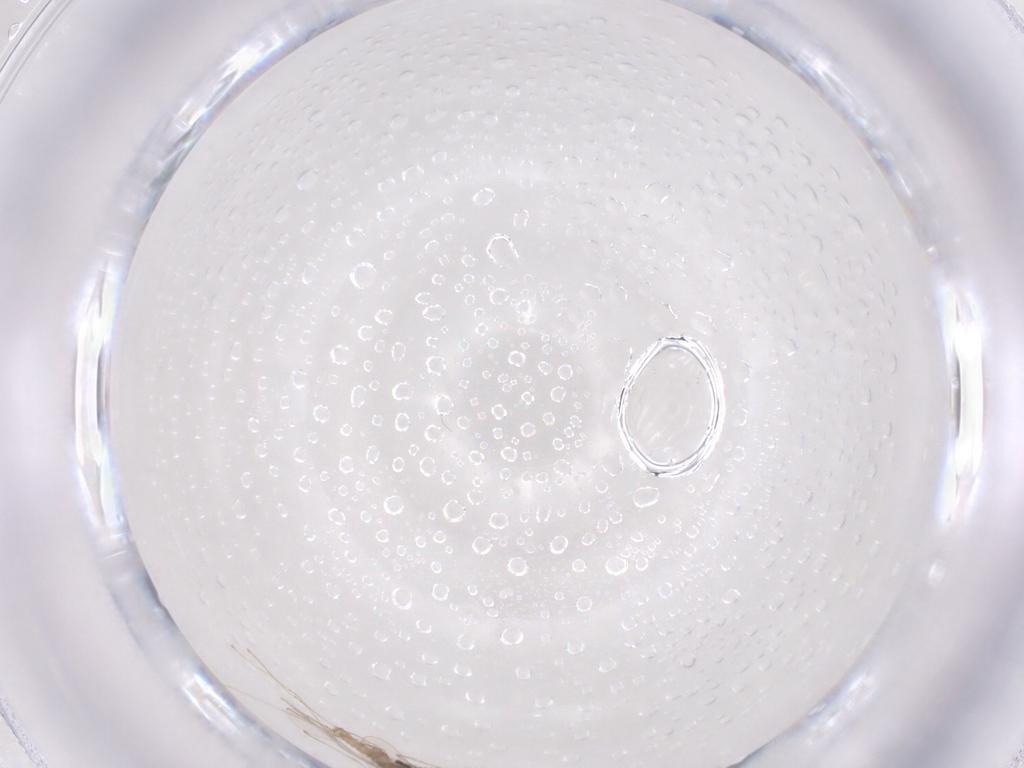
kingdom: Animalia
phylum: Arthropoda
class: Insecta
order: Diptera
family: Cecidomyiidae
